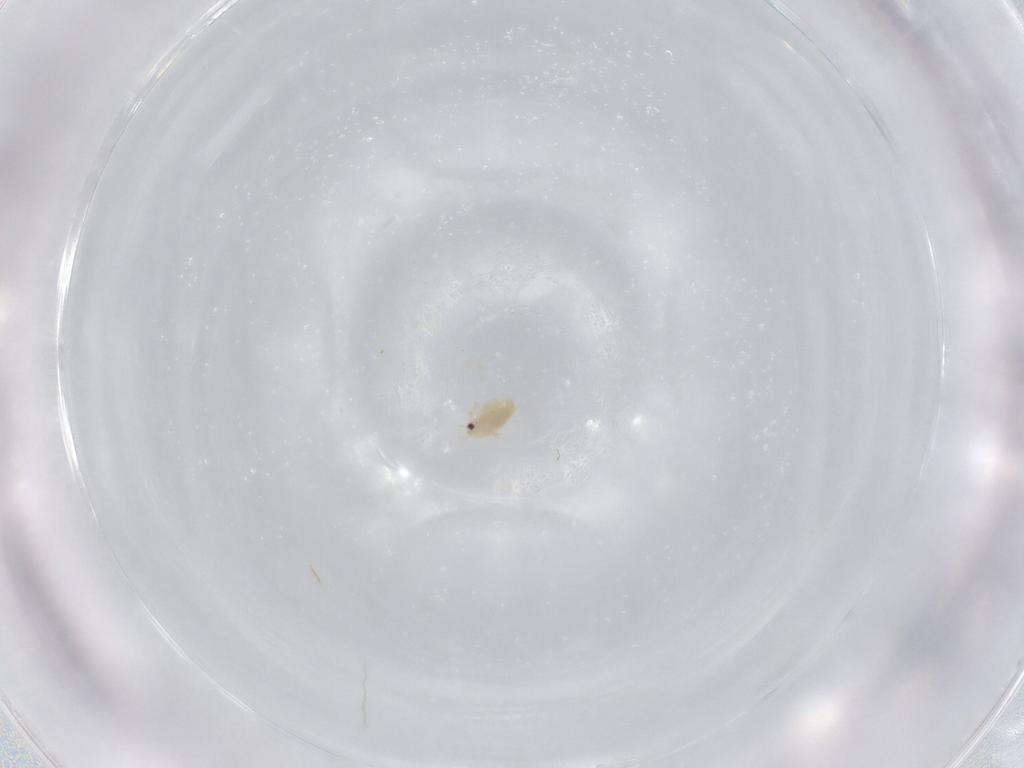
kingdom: Animalia
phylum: Arthropoda
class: Branchiopoda
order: Diplostraca
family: Daphniidae
